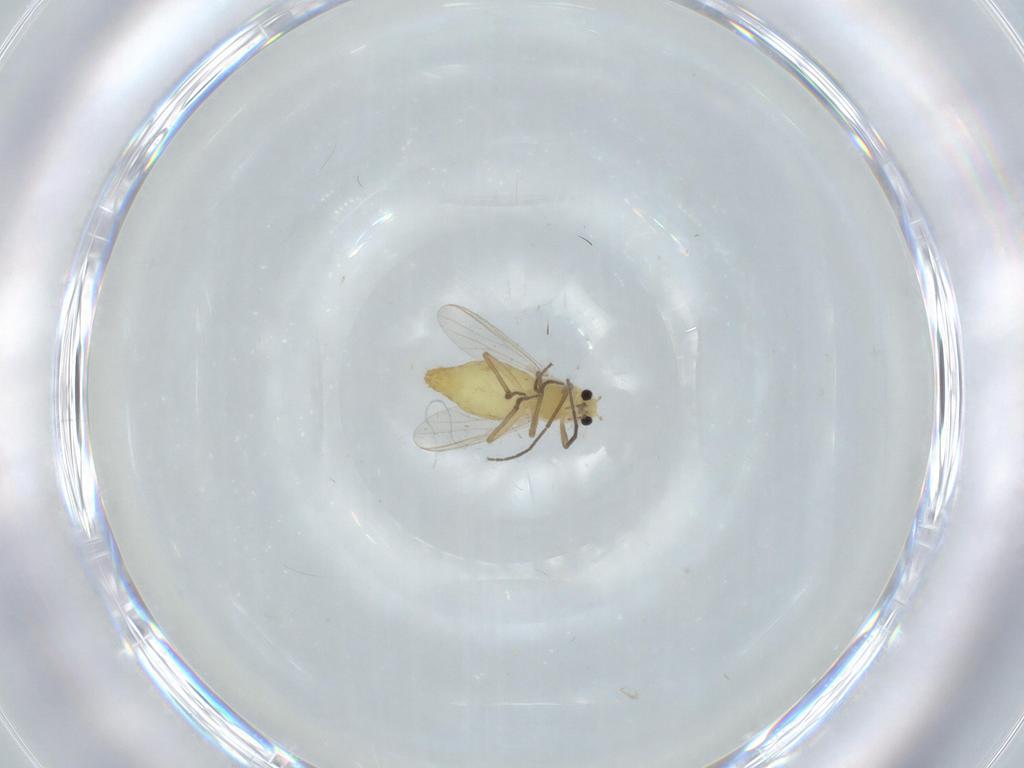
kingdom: Animalia
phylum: Arthropoda
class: Insecta
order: Diptera
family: Chironomidae
